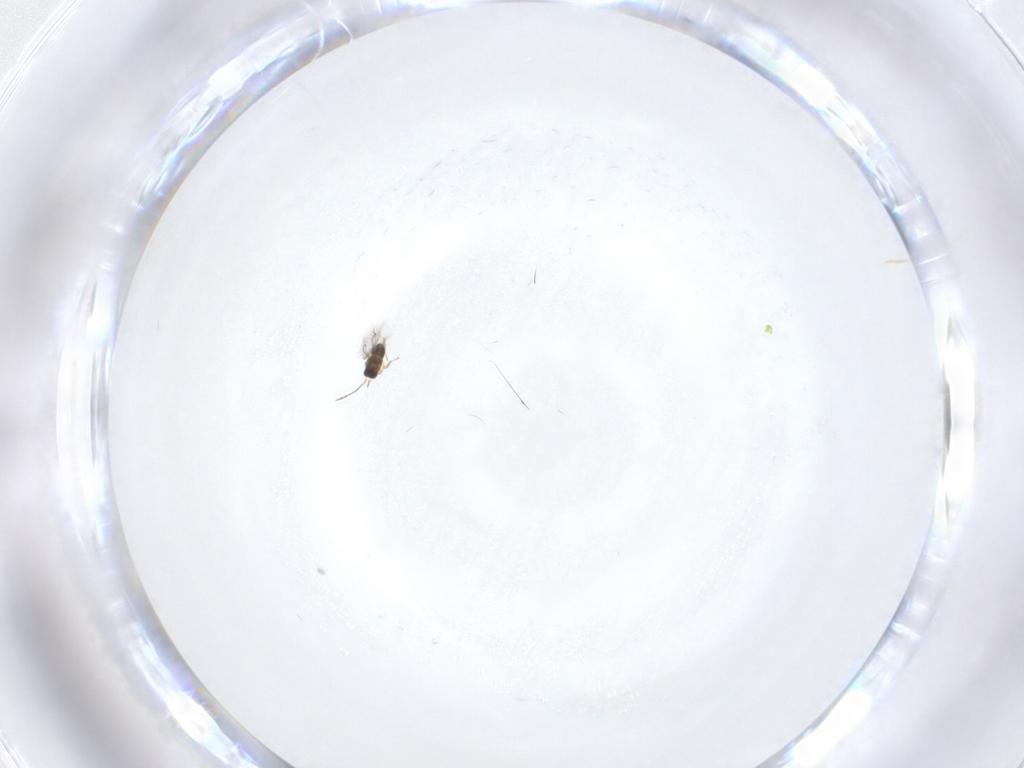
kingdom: Animalia
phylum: Arthropoda
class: Insecta
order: Hymenoptera
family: Mymaridae
